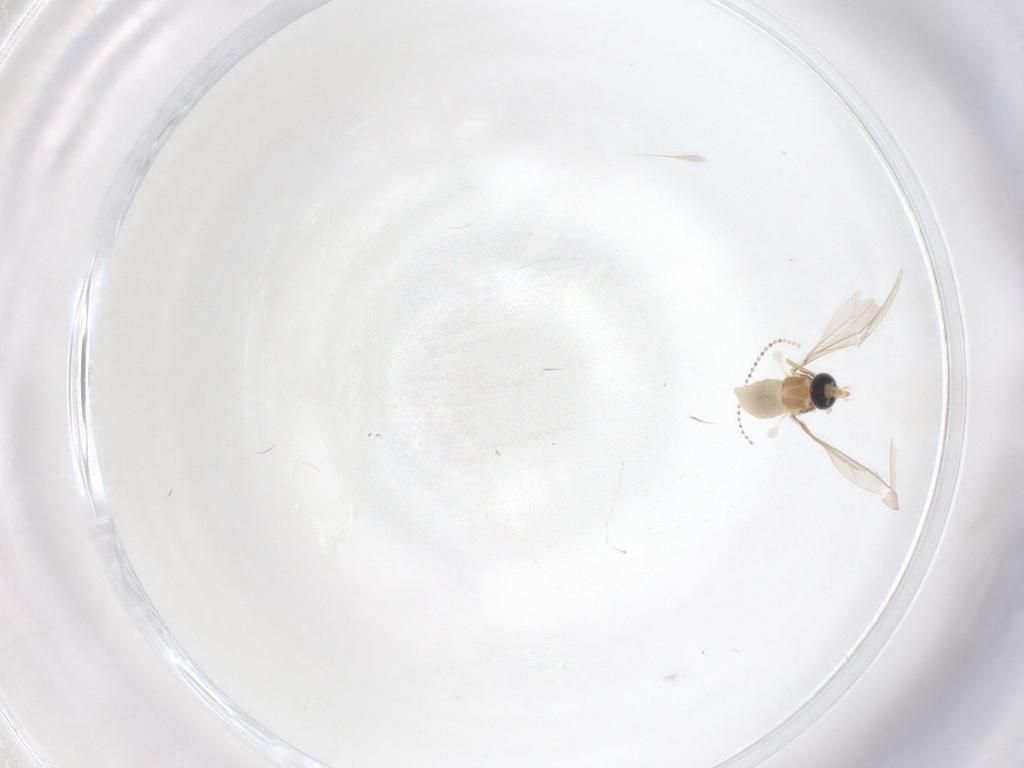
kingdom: Animalia
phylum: Arthropoda
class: Insecta
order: Diptera
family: Cecidomyiidae
